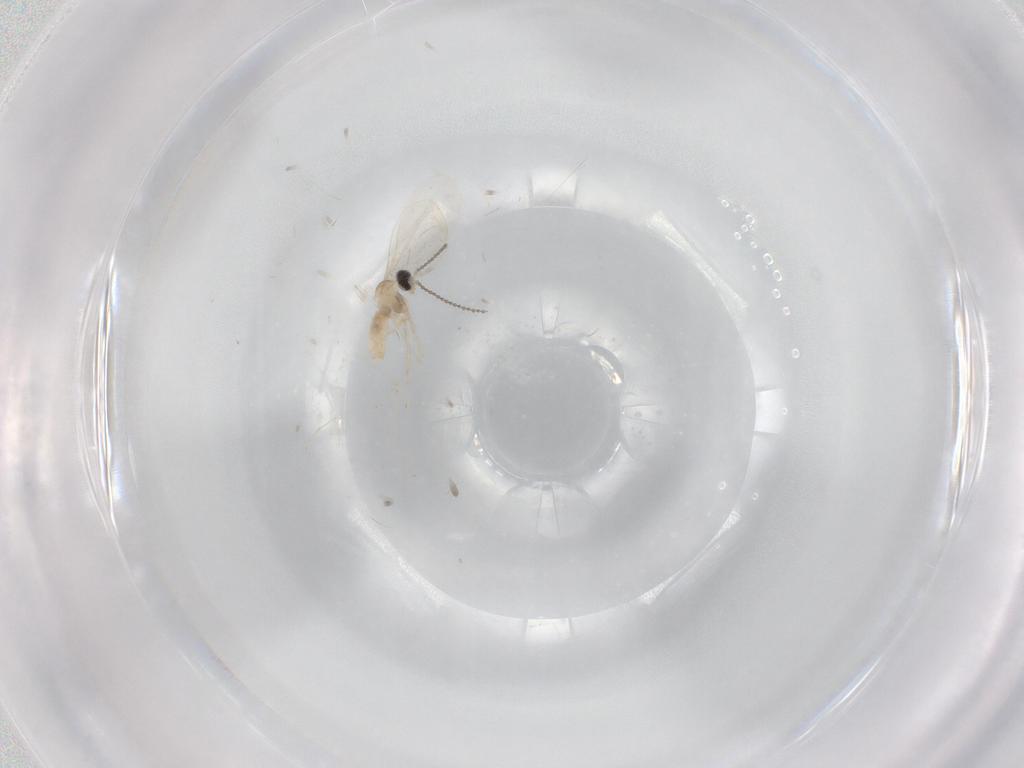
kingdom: Animalia
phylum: Arthropoda
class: Insecta
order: Diptera
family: Cecidomyiidae
